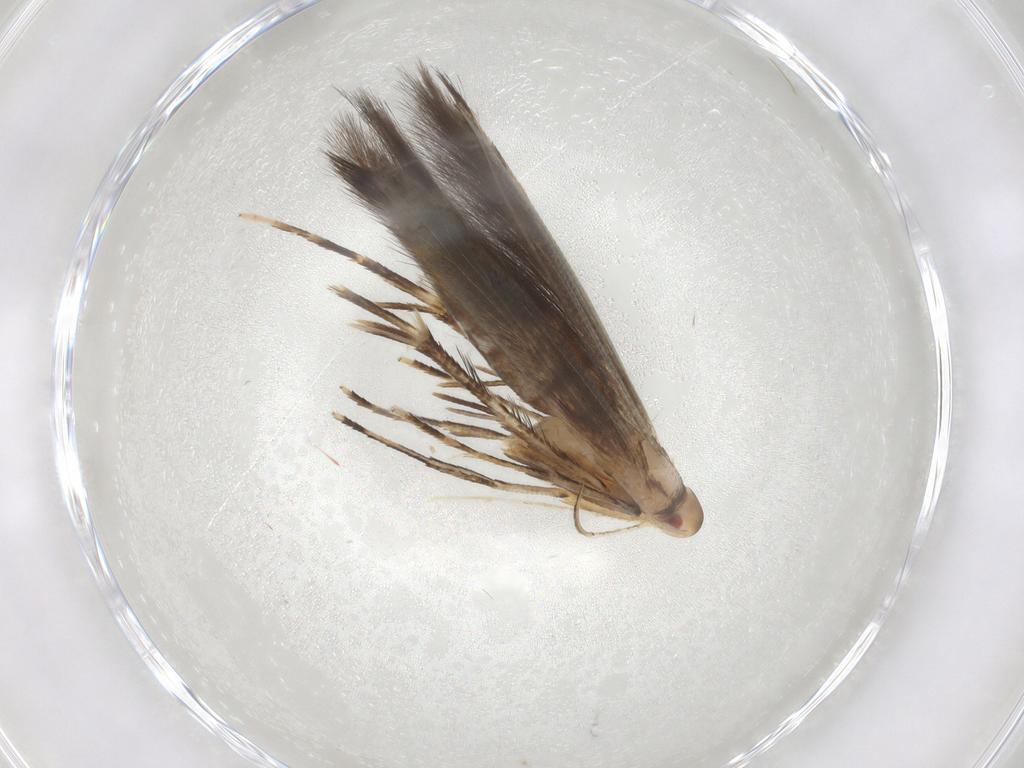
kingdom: Animalia
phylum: Arthropoda
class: Insecta
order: Lepidoptera
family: Cosmopterigidae
